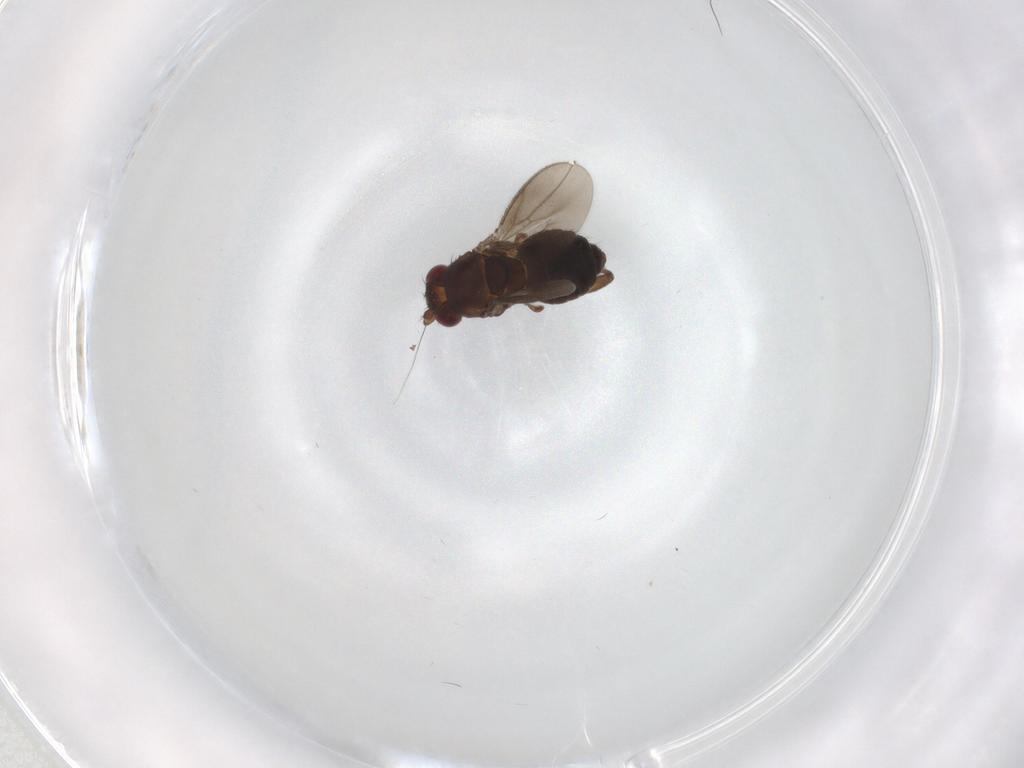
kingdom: Animalia
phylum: Arthropoda
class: Insecta
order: Diptera
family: Sphaeroceridae
